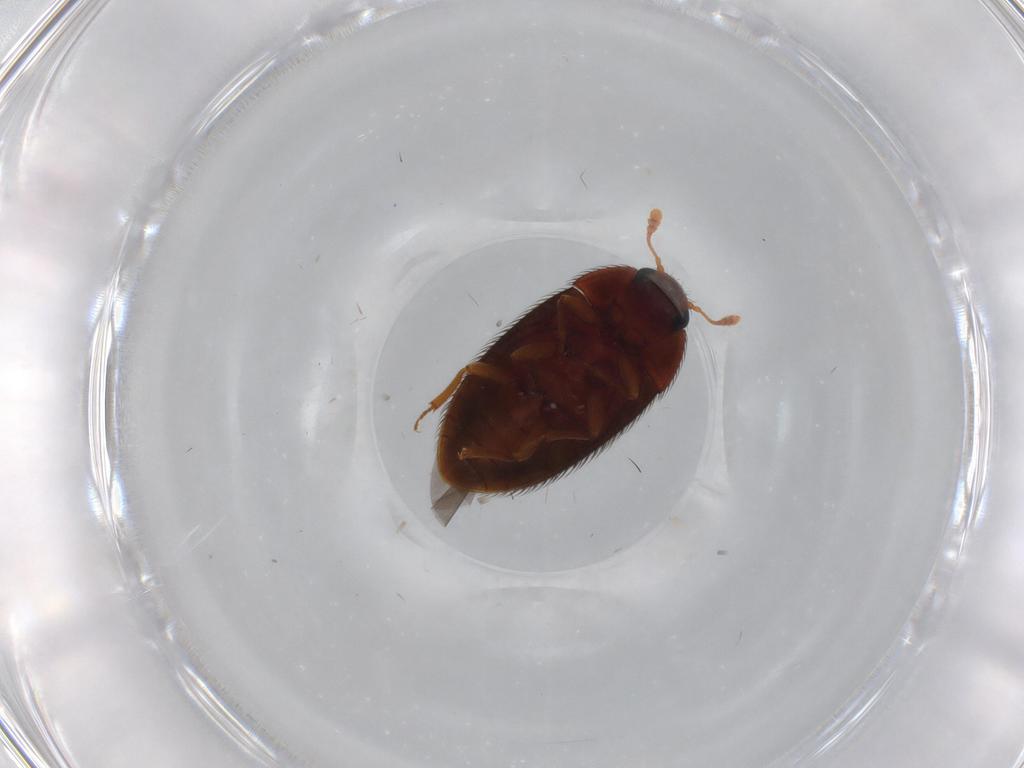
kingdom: Animalia
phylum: Arthropoda
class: Insecta
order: Coleoptera
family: Biphyllidae
